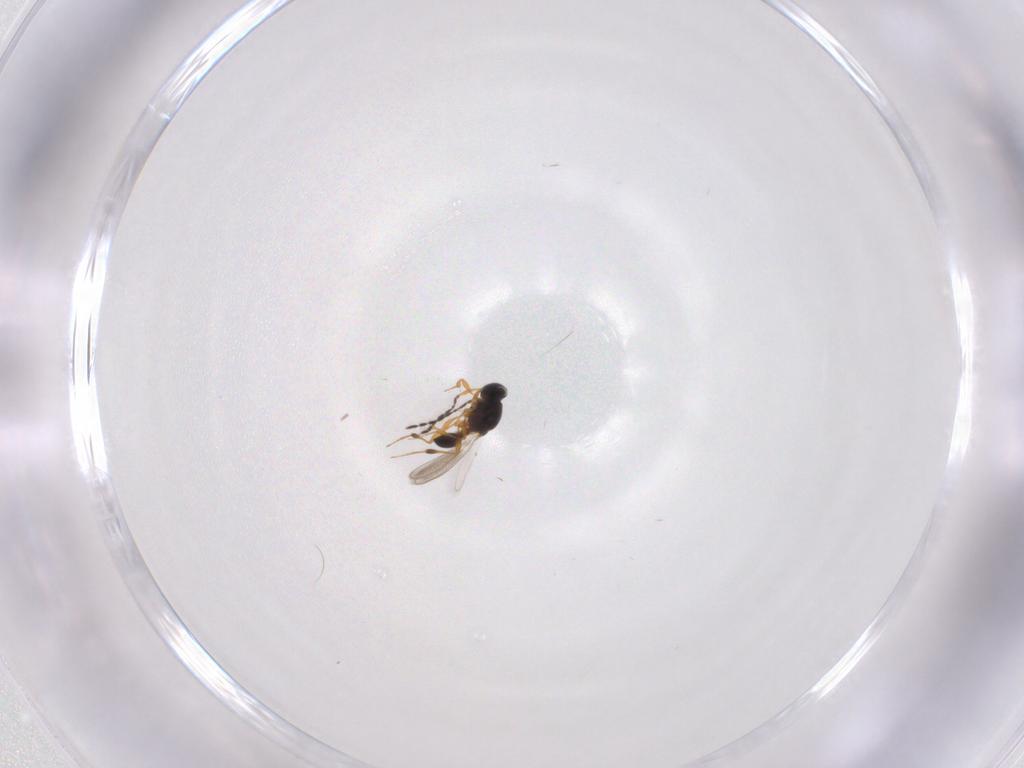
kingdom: Animalia
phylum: Arthropoda
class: Insecta
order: Hymenoptera
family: Platygastridae
